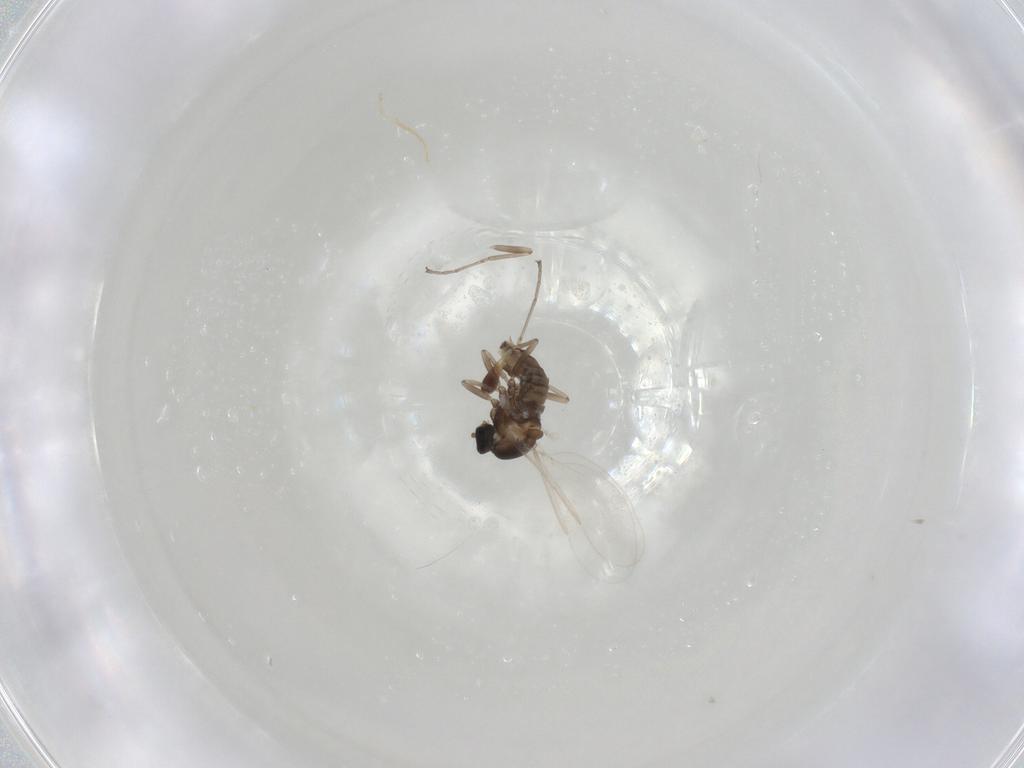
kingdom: Animalia
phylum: Arthropoda
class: Insecta
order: Diptera
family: Cecidomyiidae
